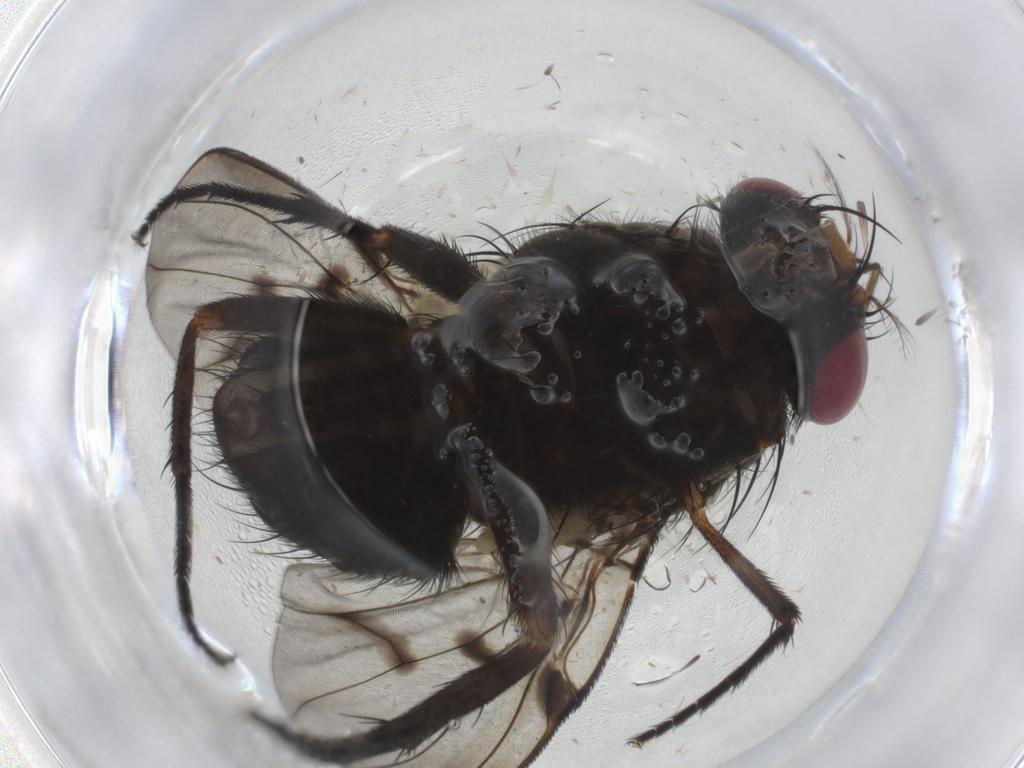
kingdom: Animalia
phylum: Arthropoda
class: Insecta
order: Diptera
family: Muscidae
